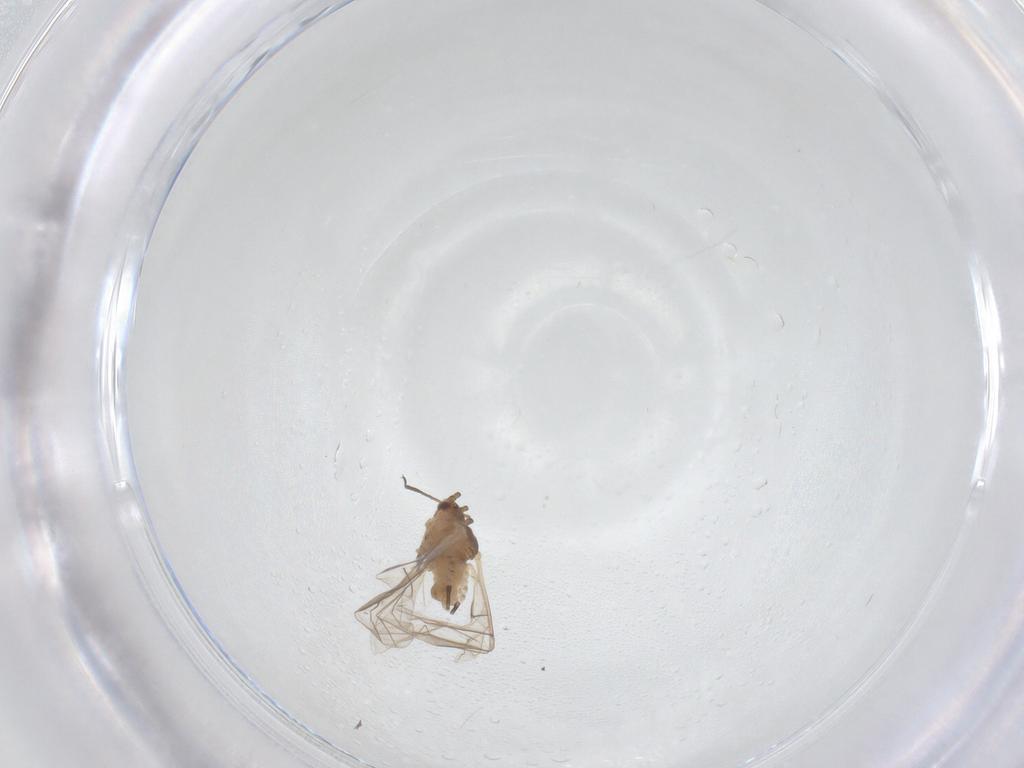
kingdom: Animalia
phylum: Arthropoda
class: Insecta
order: Hemiptera
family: Aphididae
